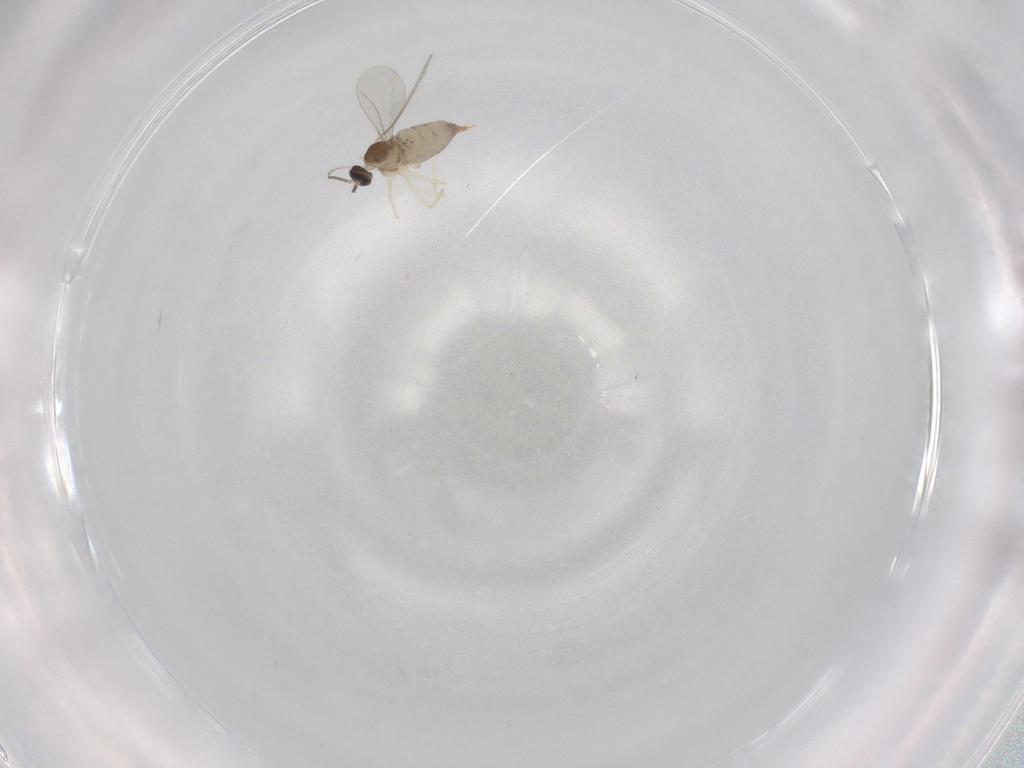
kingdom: Animalia
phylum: Arthropoda
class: Insecta
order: Diptera
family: Cecidomyiidae
